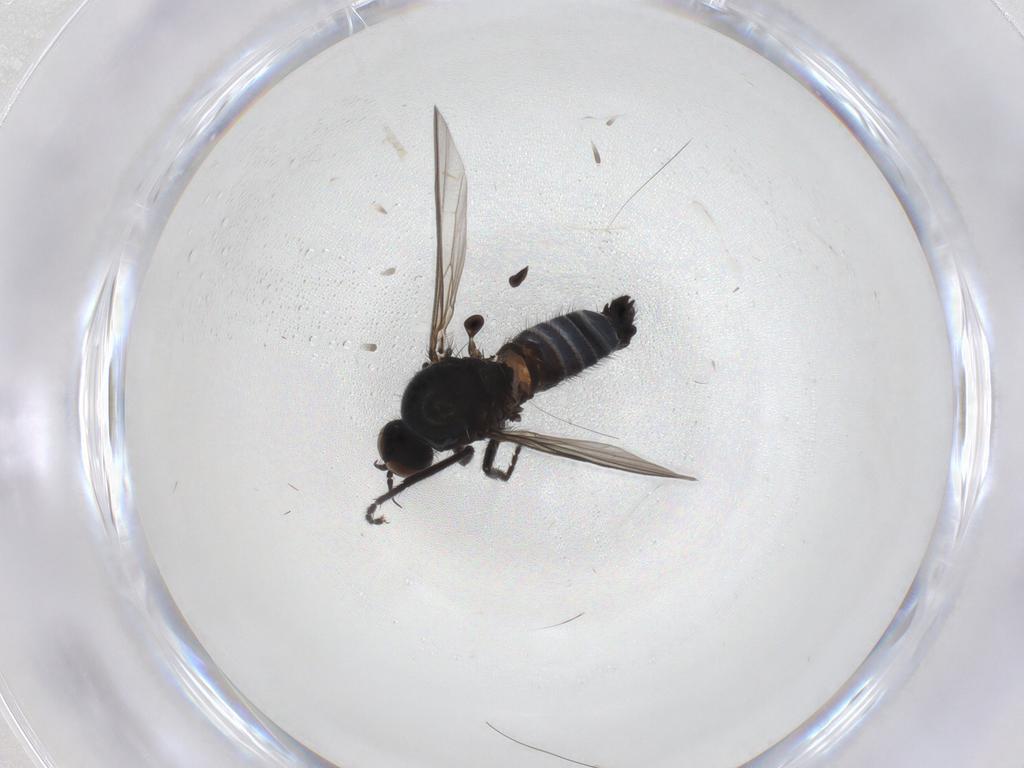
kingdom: Animalia
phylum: Arthropoda
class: Insecta
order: Diptera
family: Empididae
